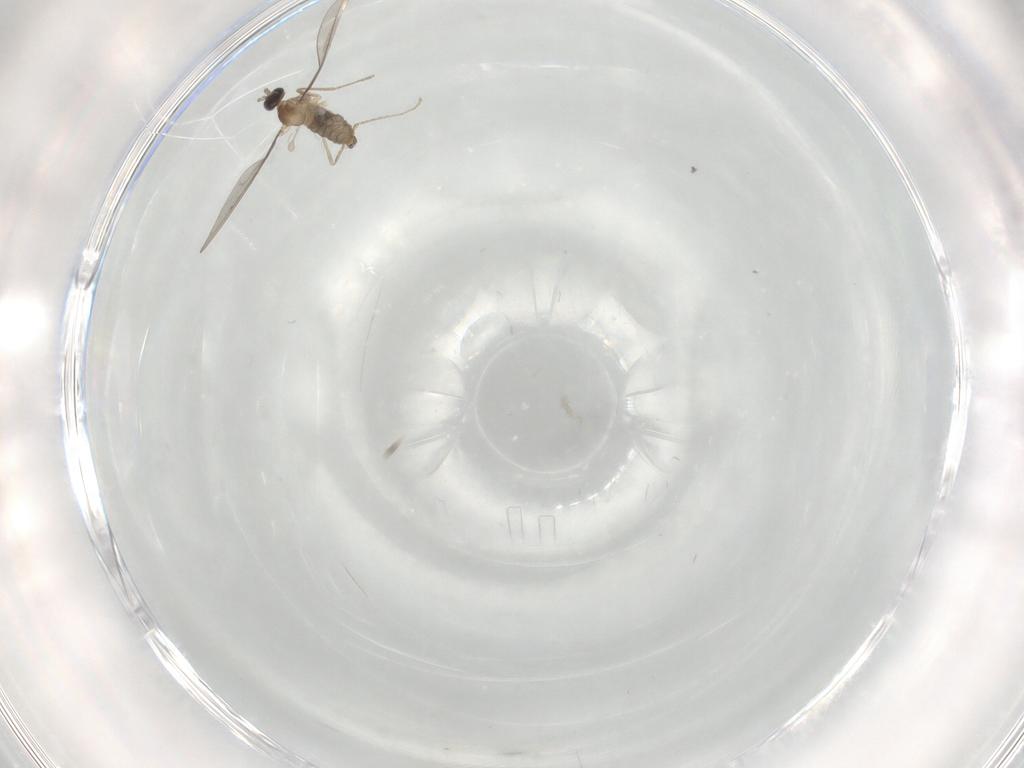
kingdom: Animalia
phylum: Arthropoda
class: Insecta
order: Diptera
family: Cecidomyiidae
